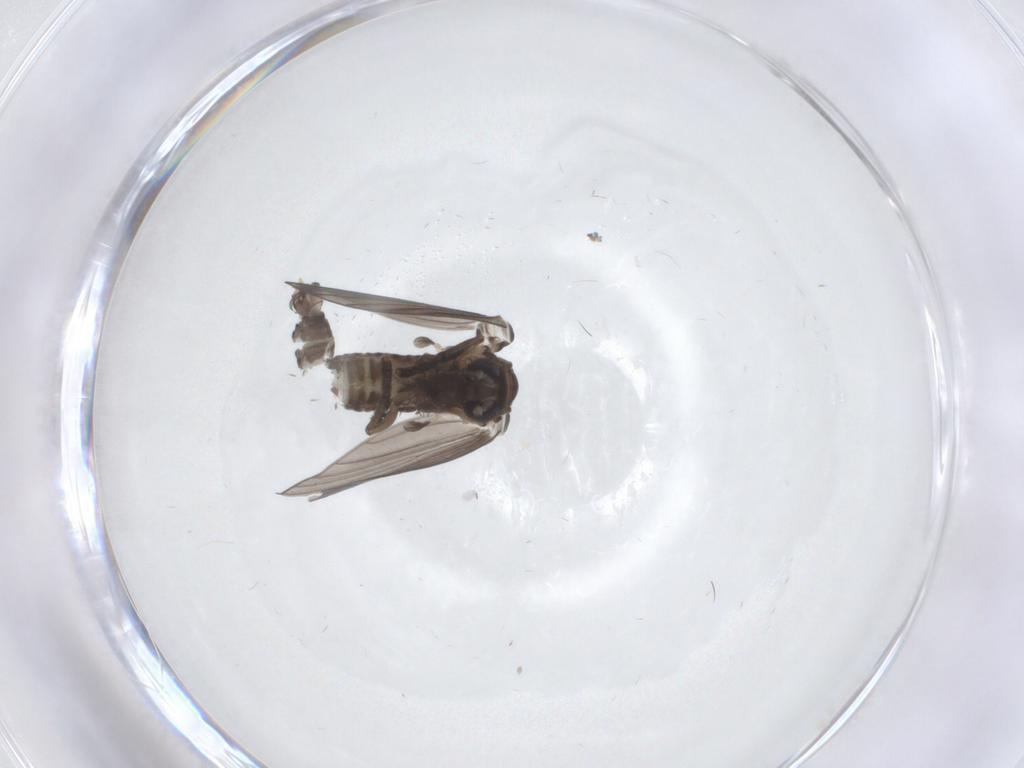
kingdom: Animalia
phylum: Arthropoda
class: Insecta
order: Diptera
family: Psychodidae
